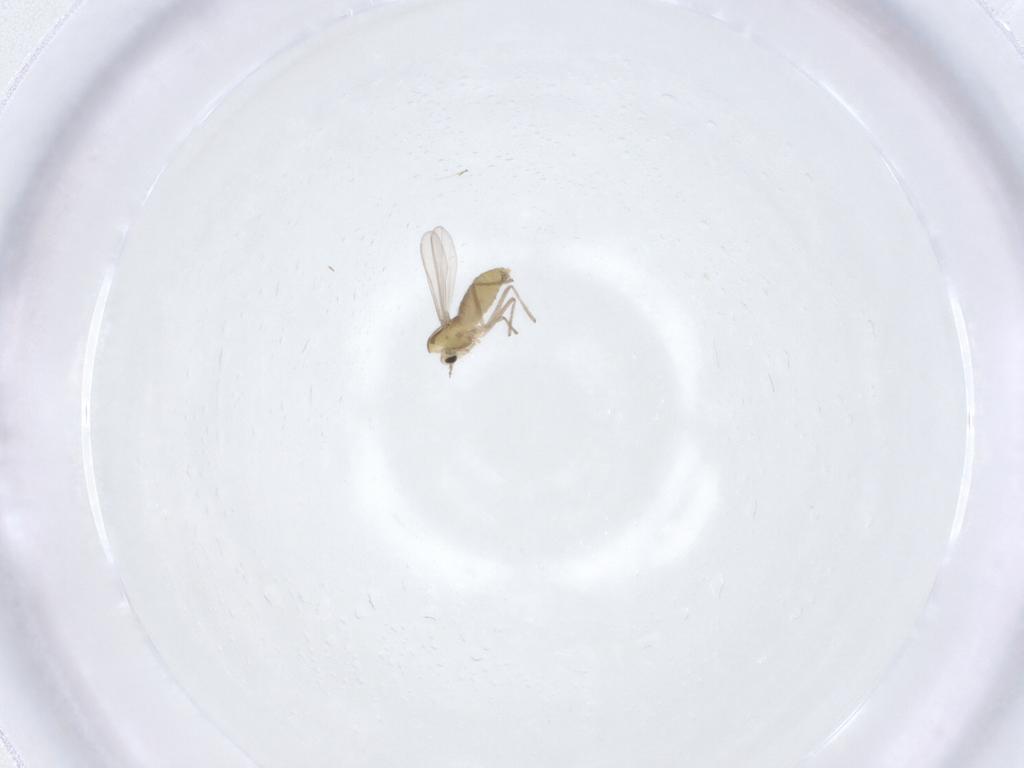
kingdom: Animalia
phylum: Arthropoda
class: Insecta
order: Diptera
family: Chironomidae
